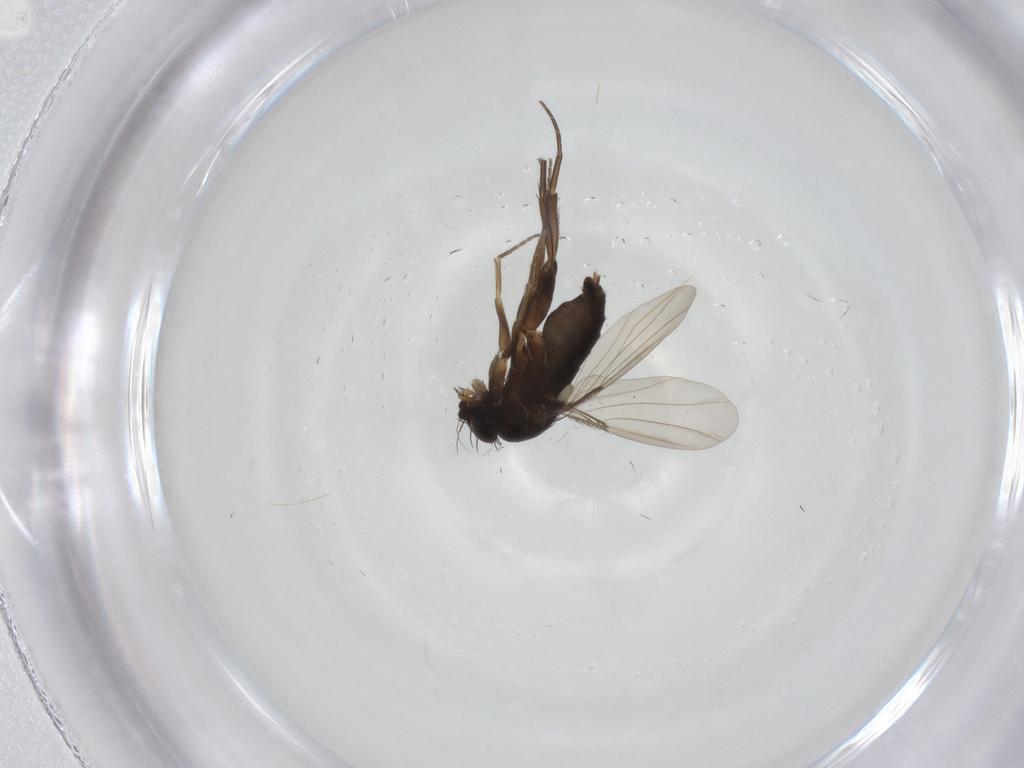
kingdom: Animalia
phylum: Arthropoda
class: Insecta
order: Diptera
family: Phoridae
